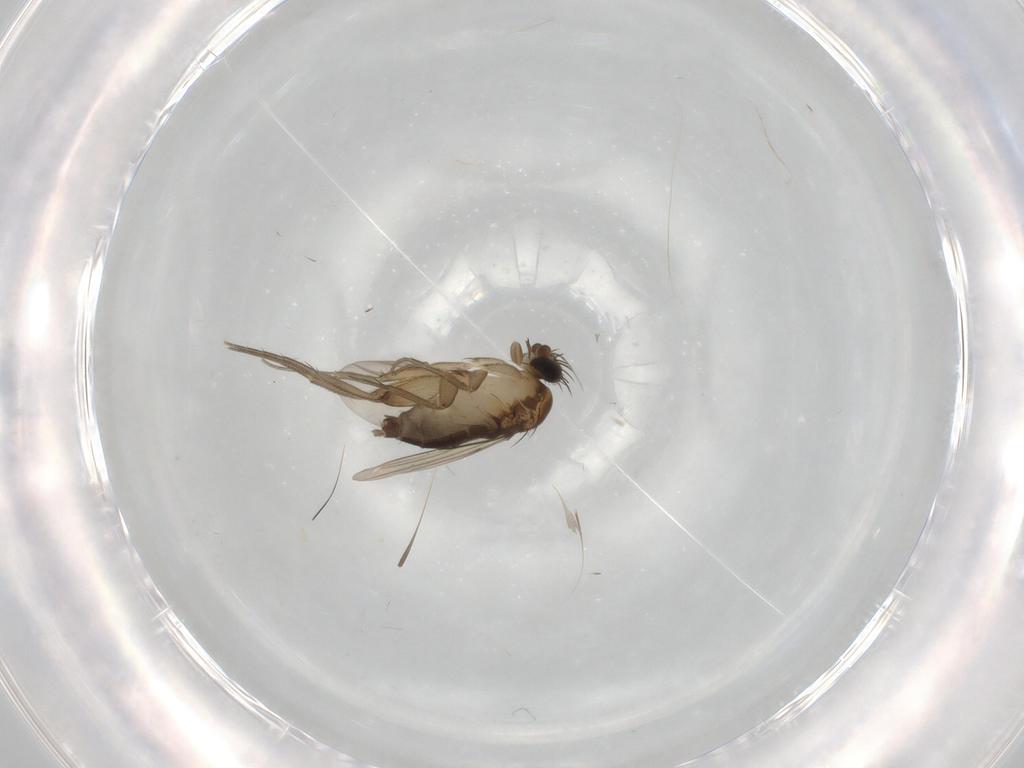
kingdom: Animalia
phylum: Arthropoda
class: Insecta
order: Diptera
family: Phoridae
